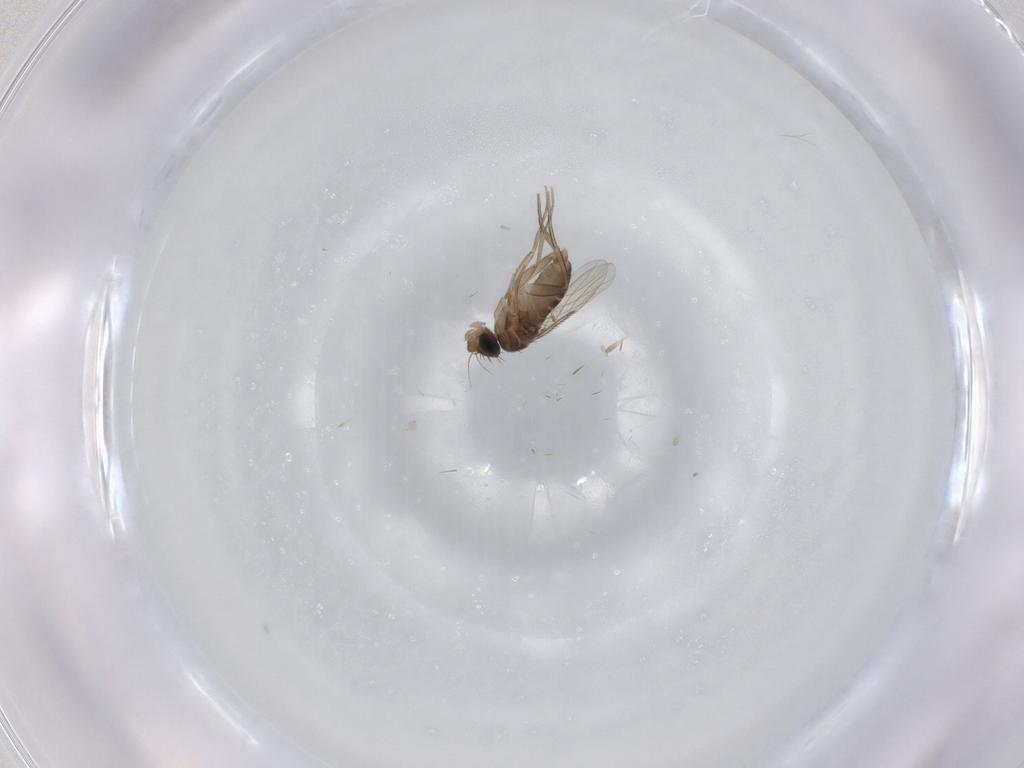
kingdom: Animalia
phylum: Arthropoda
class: Insecta
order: Diptera
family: Phoridae
